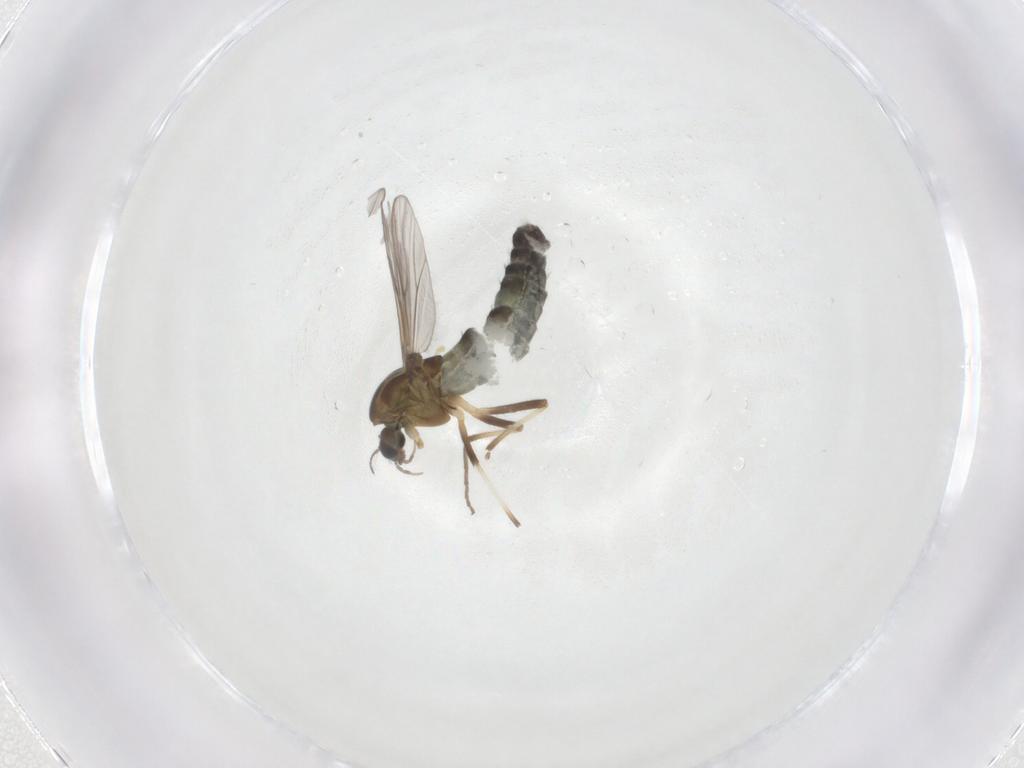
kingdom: Animalia
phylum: Arthropoda
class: Insecta
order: Diptera
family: Chironomidae
